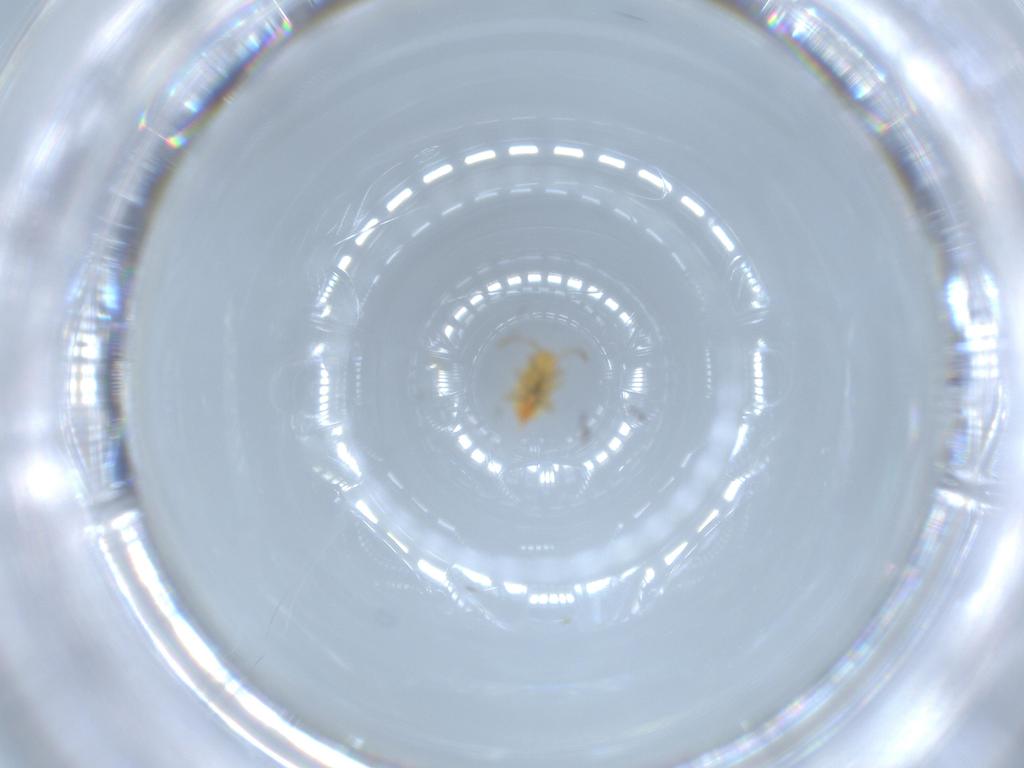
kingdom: Animalia
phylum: Arthropoda
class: Insecta
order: Hemiptera
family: Miridae
